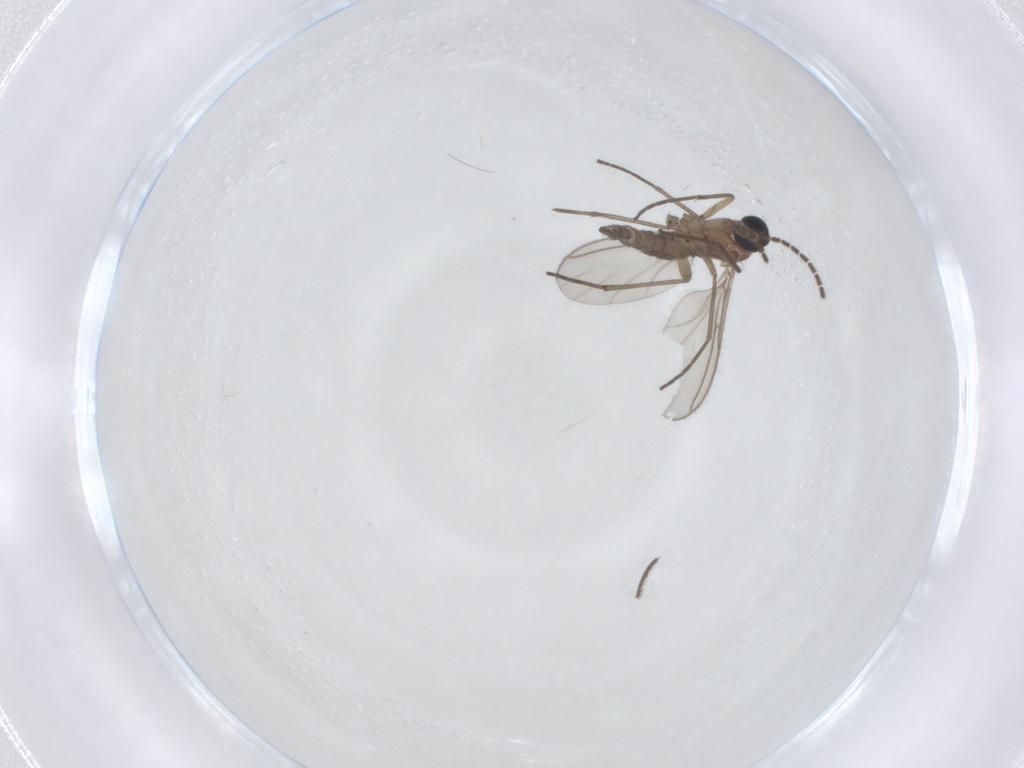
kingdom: Animalia
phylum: Arthropoda
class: Insecta
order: Diptera
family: Sciaridae
